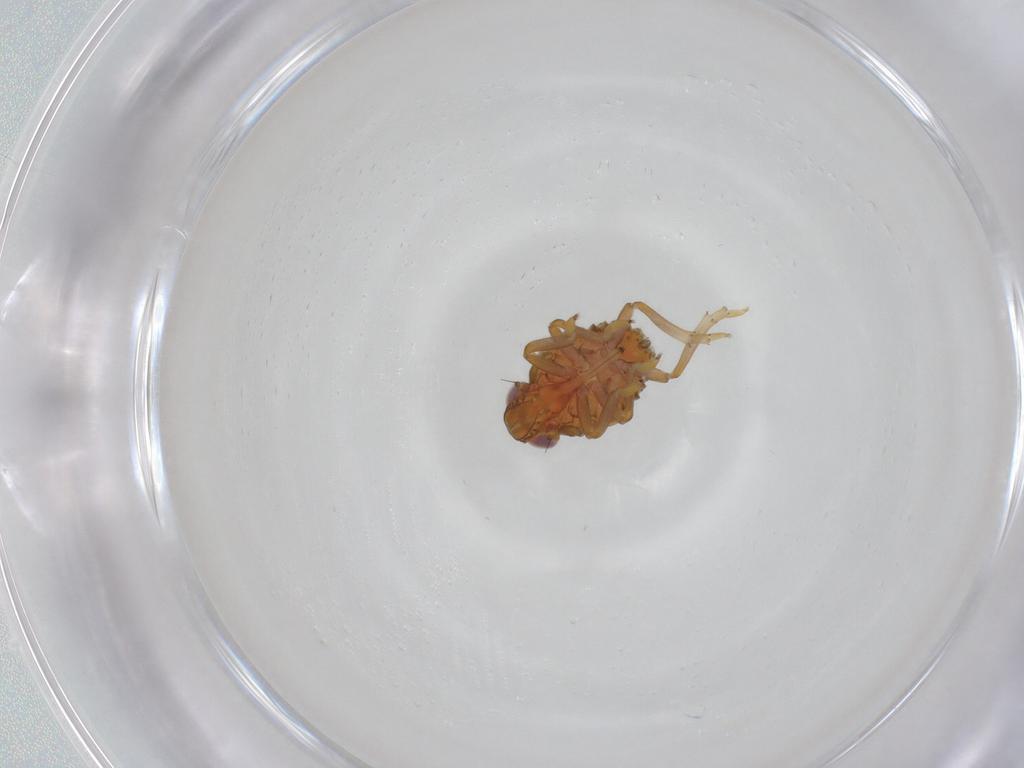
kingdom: Animalia
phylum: Arthropoda
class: Insecta
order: Hemiptera
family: Issidae
